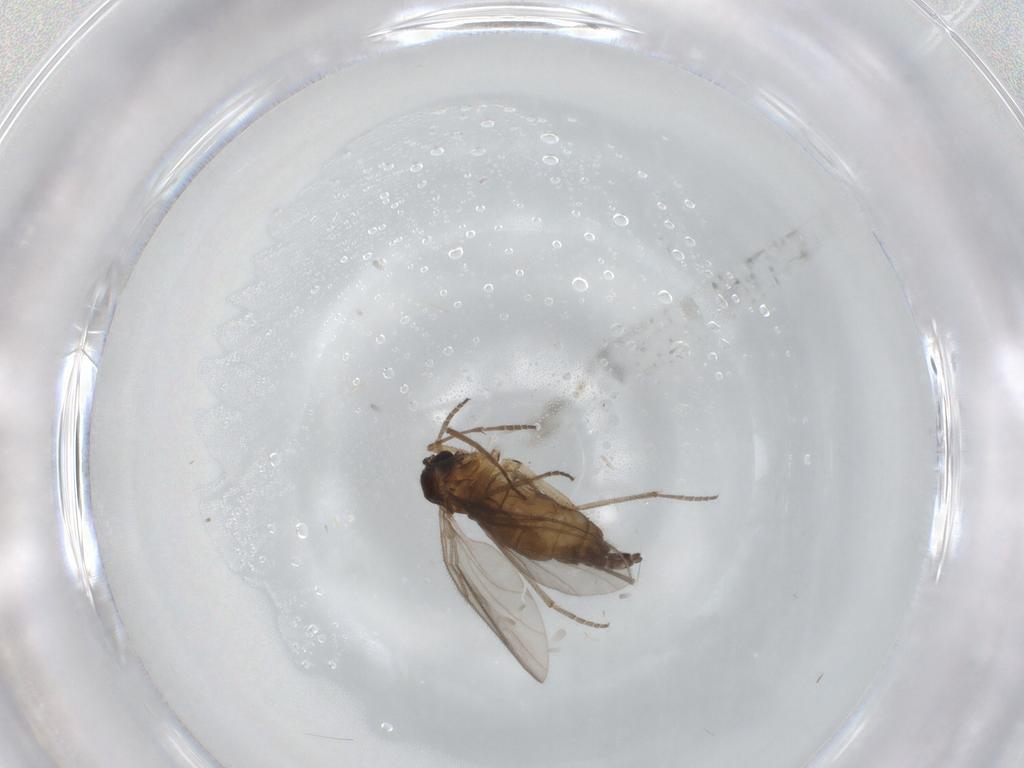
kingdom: Animalia
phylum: Arthropoda
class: Insecta
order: Diptera
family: Sciaridae
